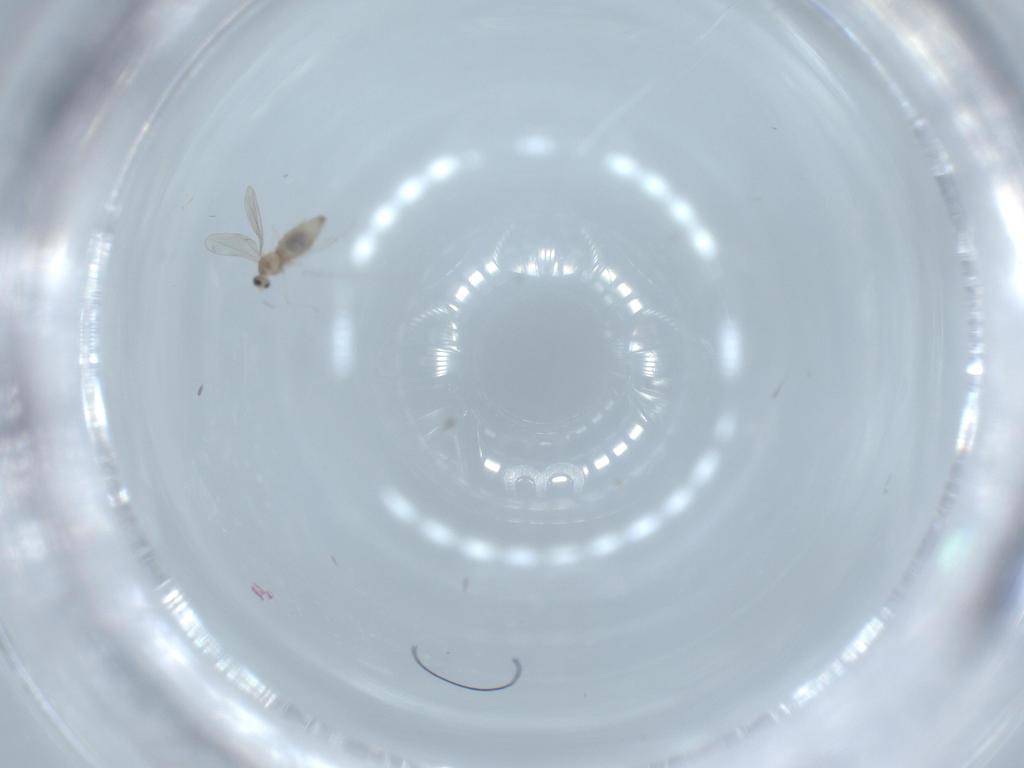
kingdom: Animalia
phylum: Arthropoda
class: Insecta
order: Diptera
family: Cecidomyiidae
